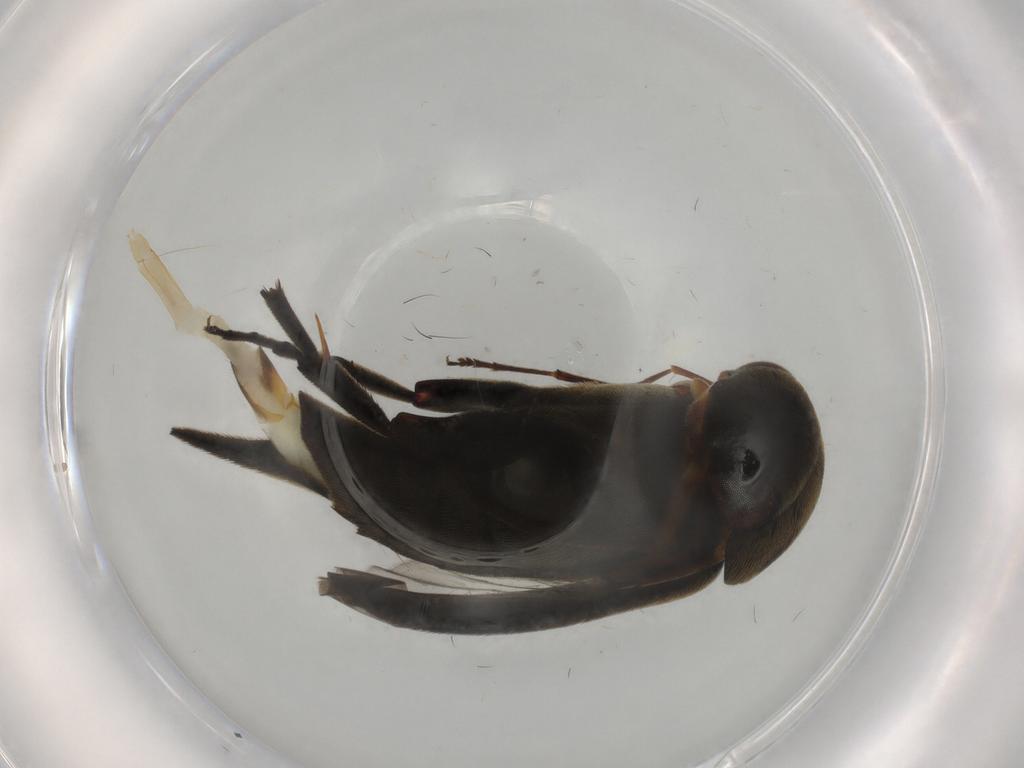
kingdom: Animalia
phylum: Arthropoda
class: Insecta
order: Coleoptera
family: Mordellidae
